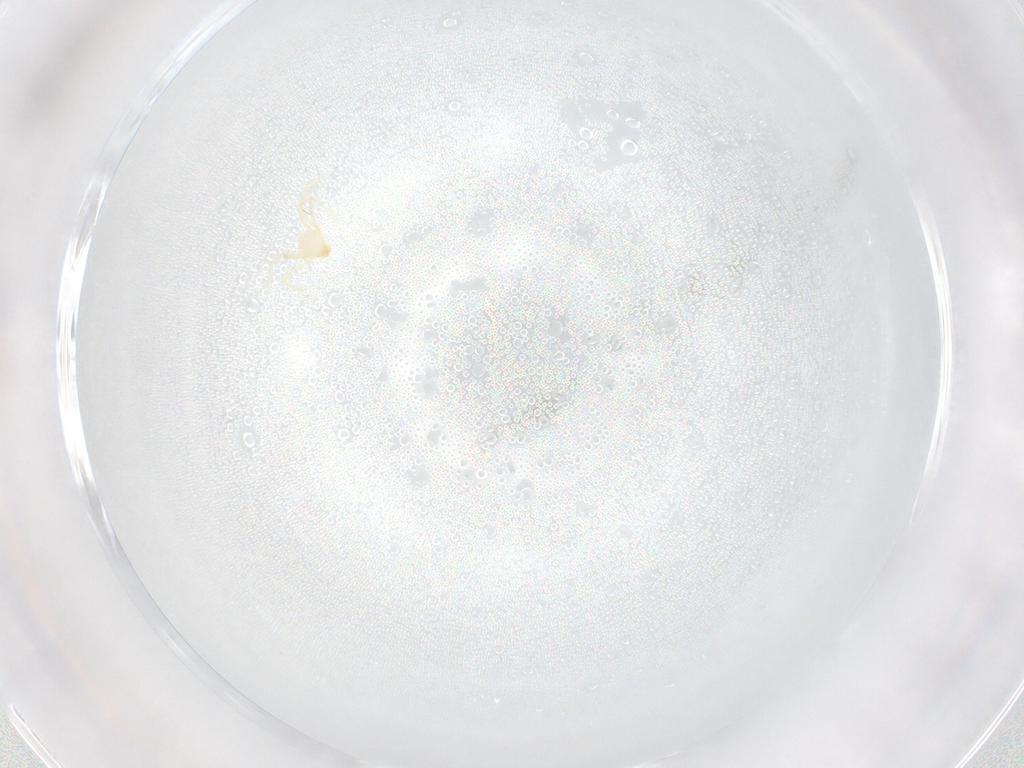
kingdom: Animalia
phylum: Arthropoda
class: Arachnida
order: Trombidiformes
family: Erythraeidae
